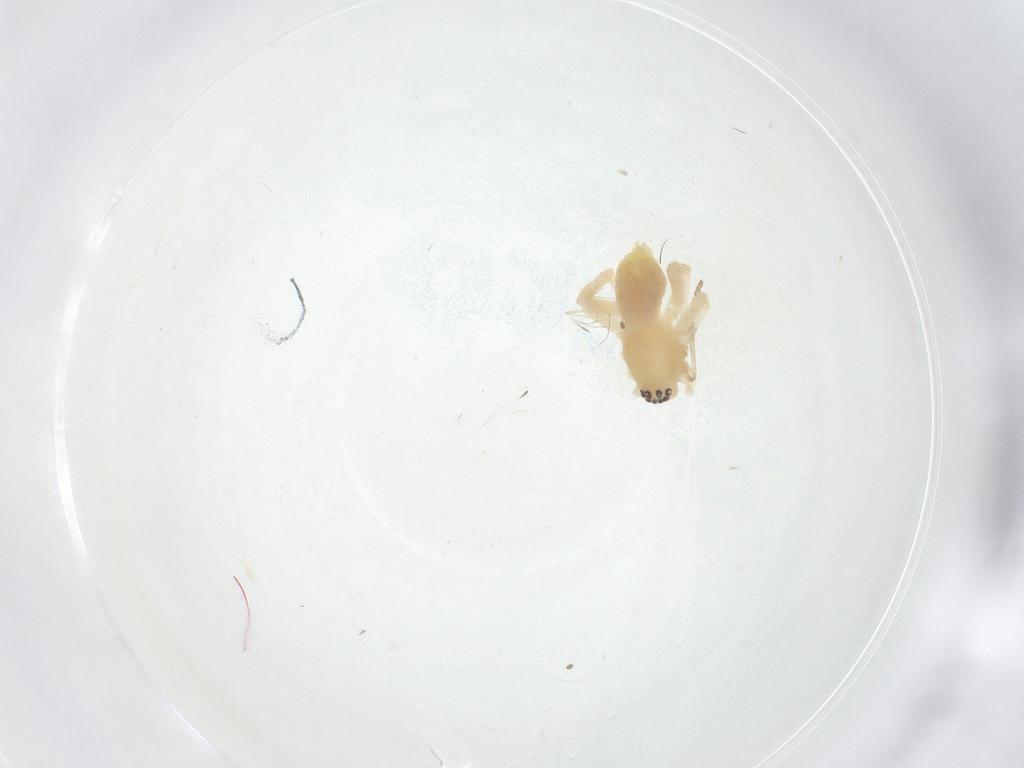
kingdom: Animalia
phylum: Arthropoda
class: Arachnida
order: Araneae
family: Anyphaenidae
